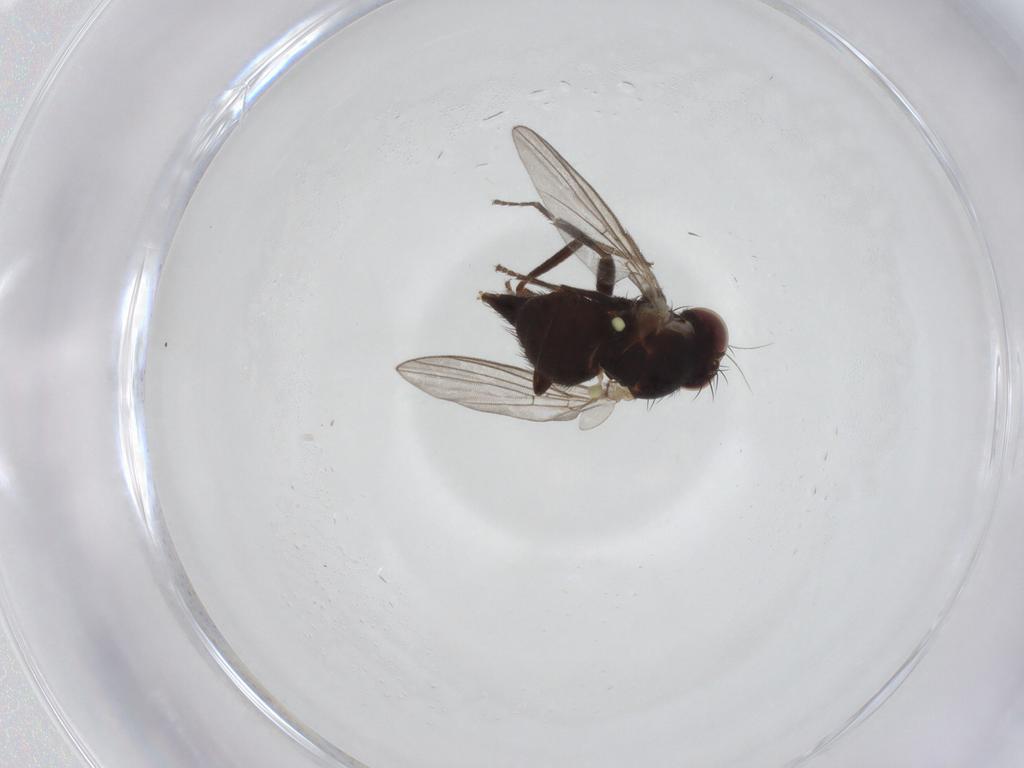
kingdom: Animalia
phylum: Arthropoda
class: Insecta
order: Diptera
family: Agromyzidae
